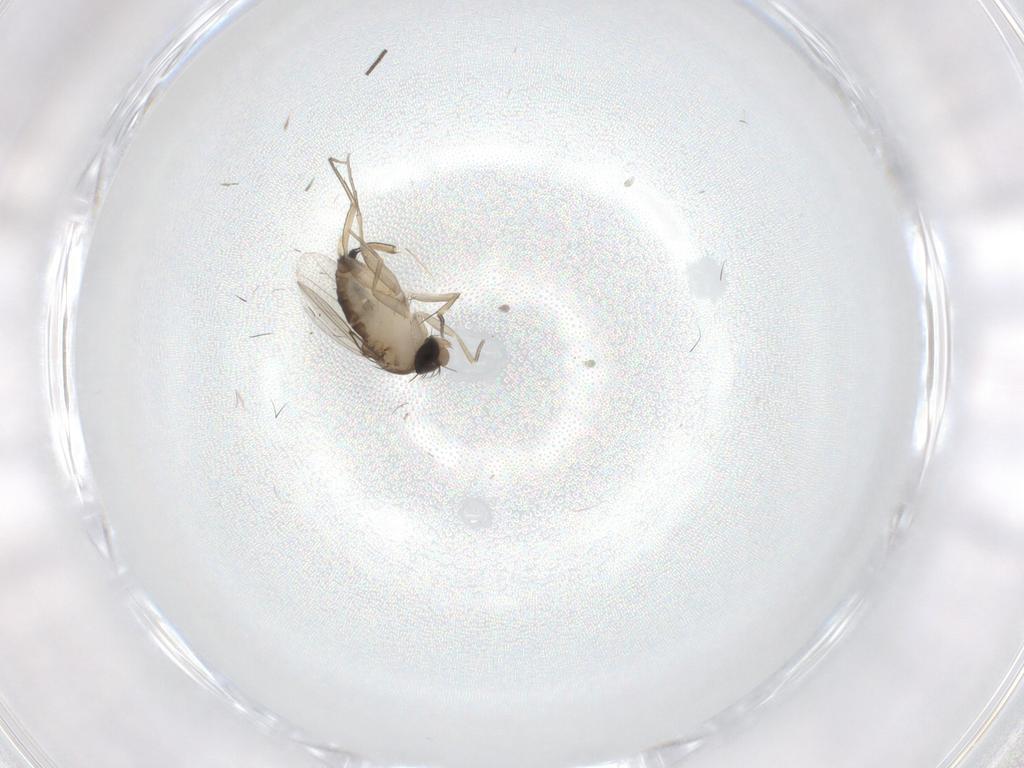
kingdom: Animalia
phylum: Arthropoda
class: Insecta
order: Diptera
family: Phoridae
